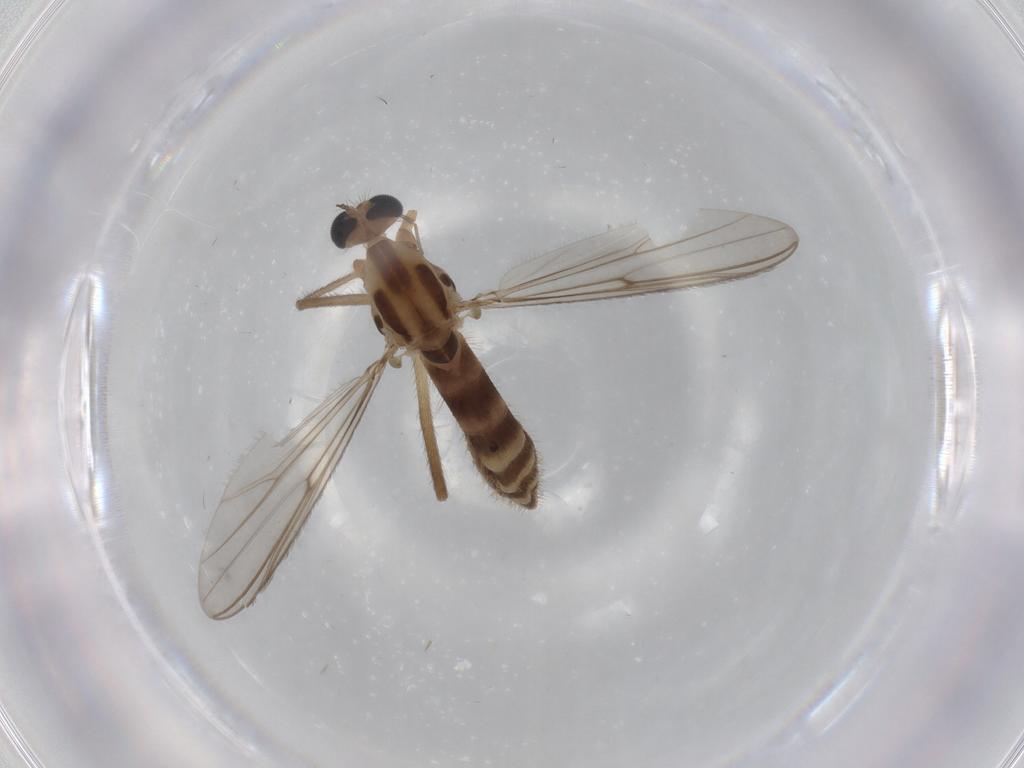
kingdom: Animalia
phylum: Arthropoda
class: Insecta
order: Diptera
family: Chironomidae
